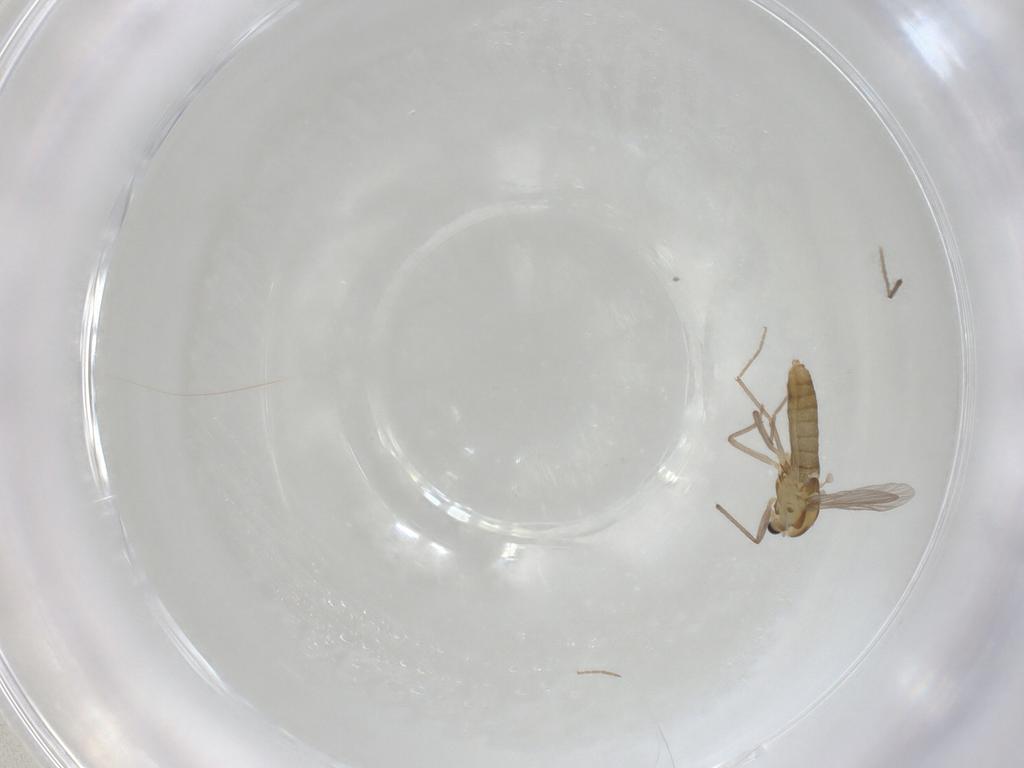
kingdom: Animalia
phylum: Arthropoda
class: Insecta
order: Diptera
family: Chironomidae
